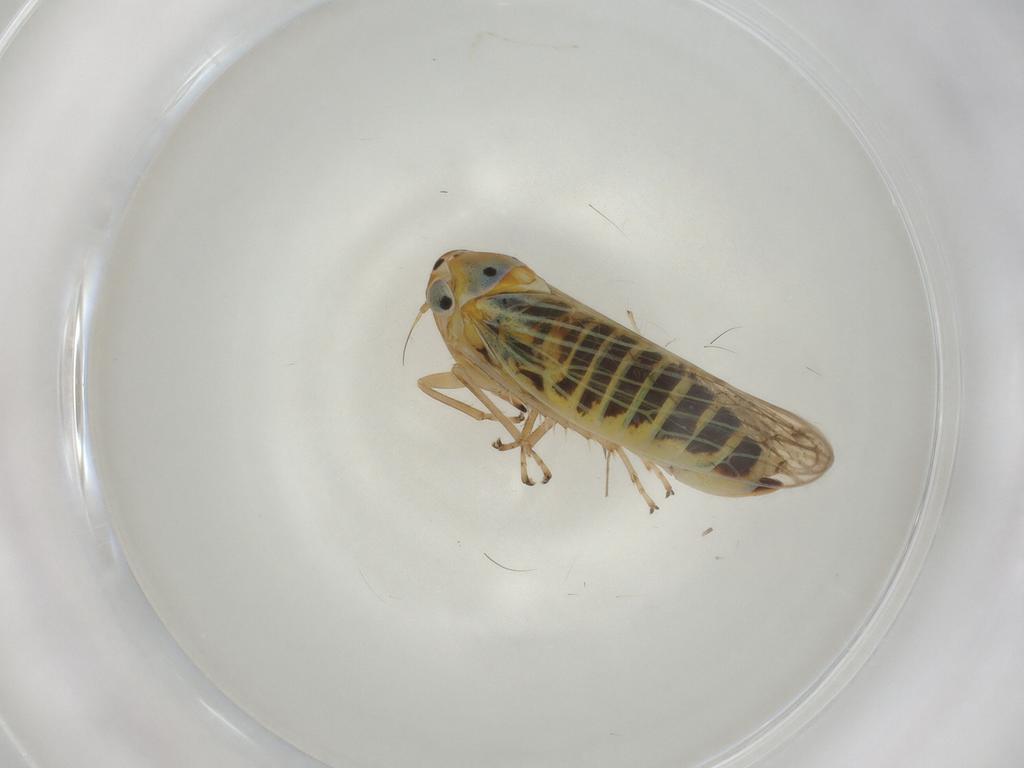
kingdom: Animalia
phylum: Arthropoda
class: Insecta
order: Hemiptera
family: Cicadellidae
